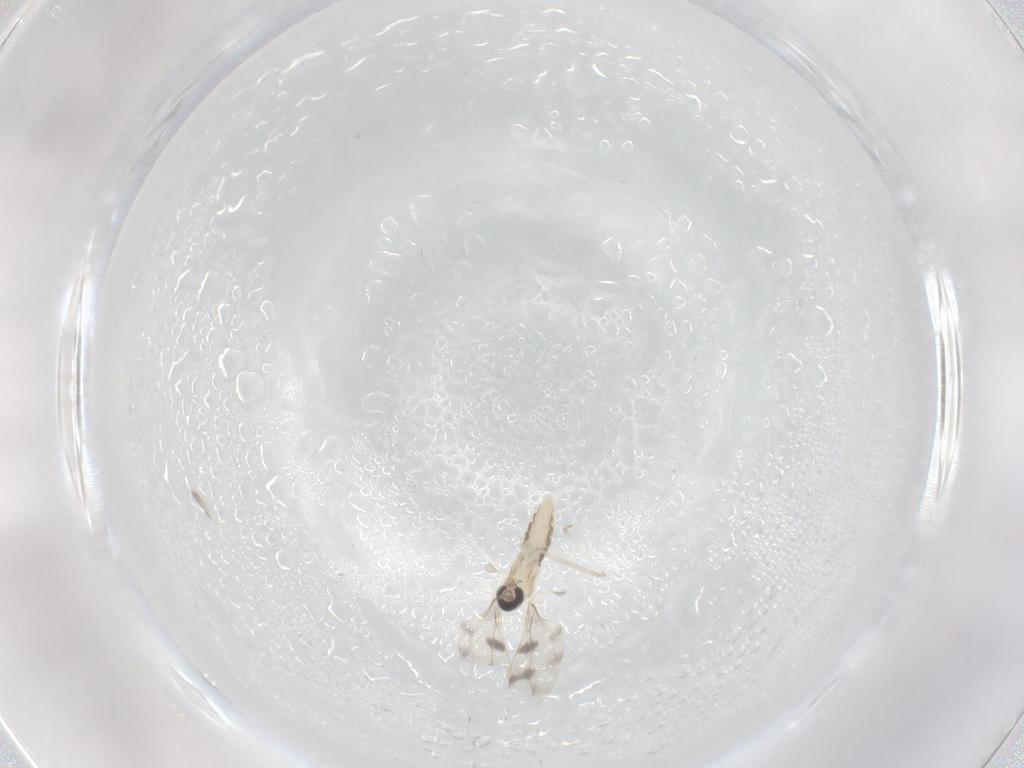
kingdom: Animalia
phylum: Arthropoda
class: Insecta
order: Diptera
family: Cecidomyiidae
